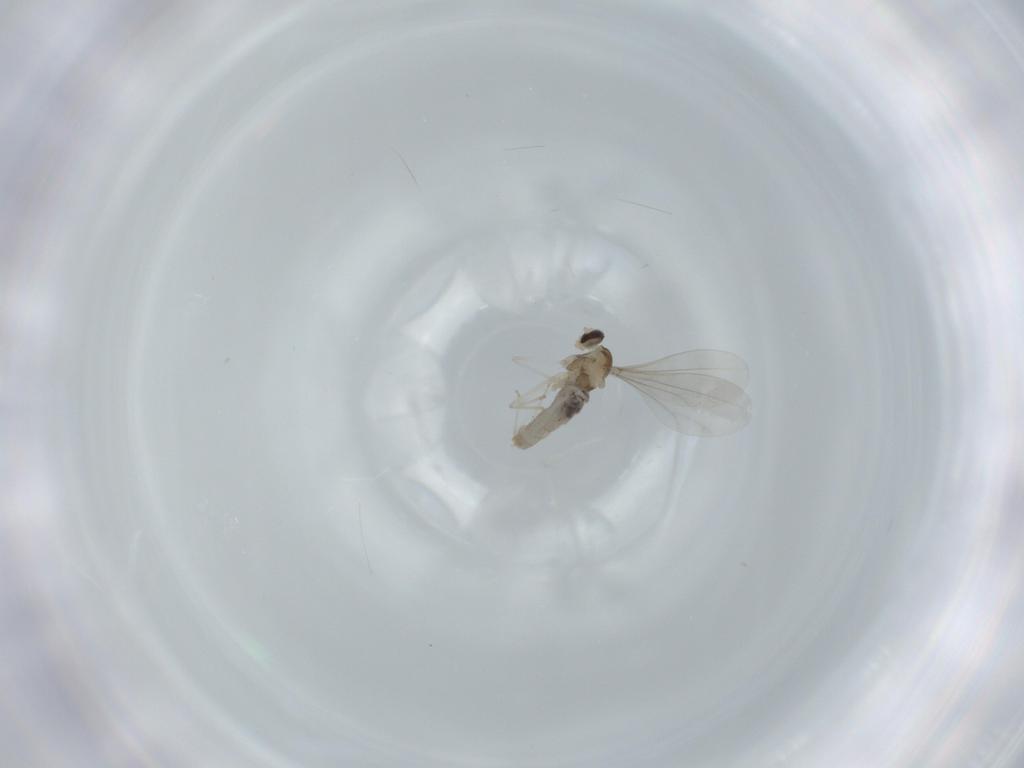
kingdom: Animalia
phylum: Arthropoda
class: Insecta
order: Diptera
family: Cecidomyiidae
